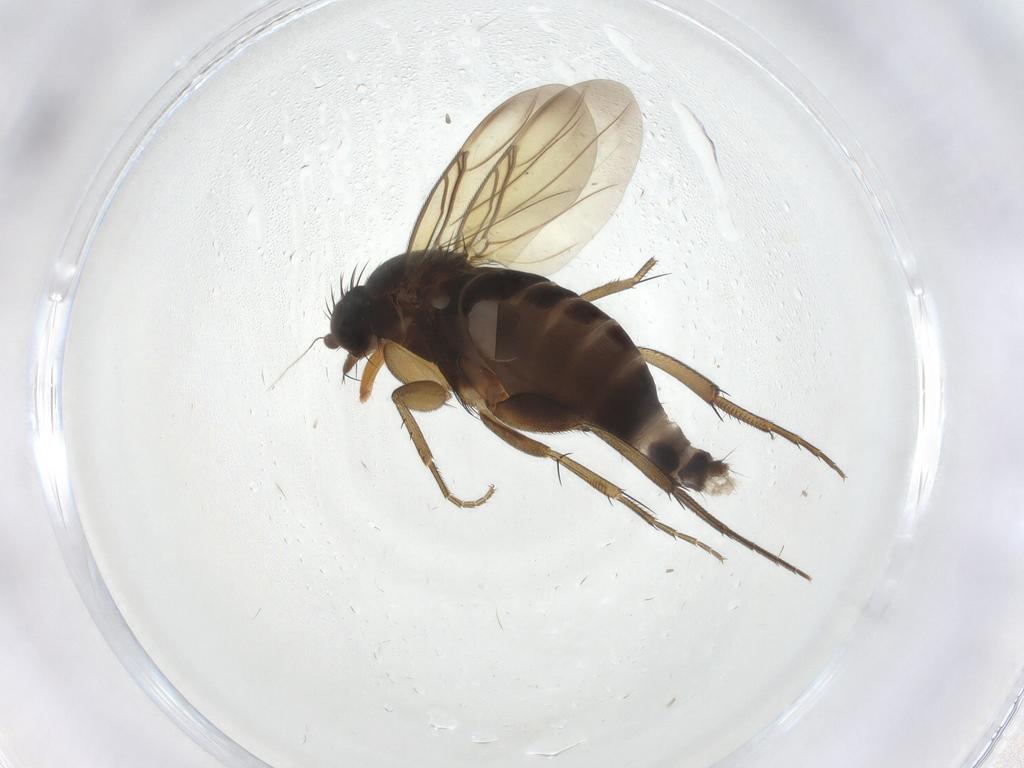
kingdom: Animalia
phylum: Arthropoda
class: Insecta
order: Diptera
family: Phoridae
